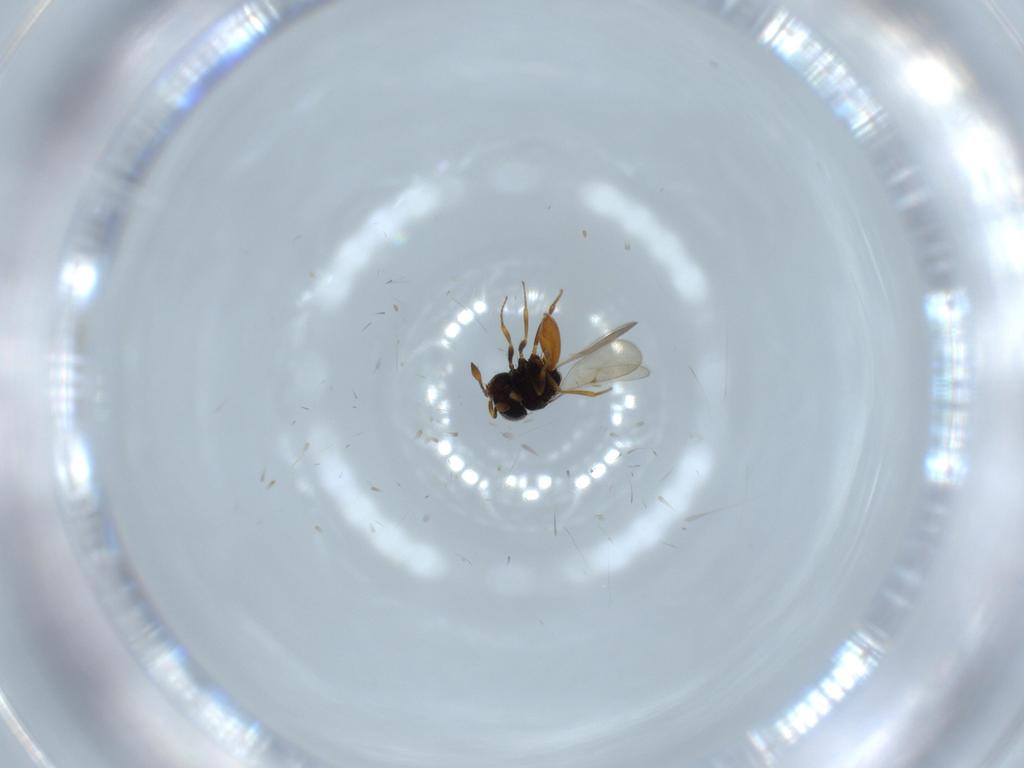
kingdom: Animalia
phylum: Arthropoda
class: Insecta
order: Hymenoptera
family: Scelionidae
